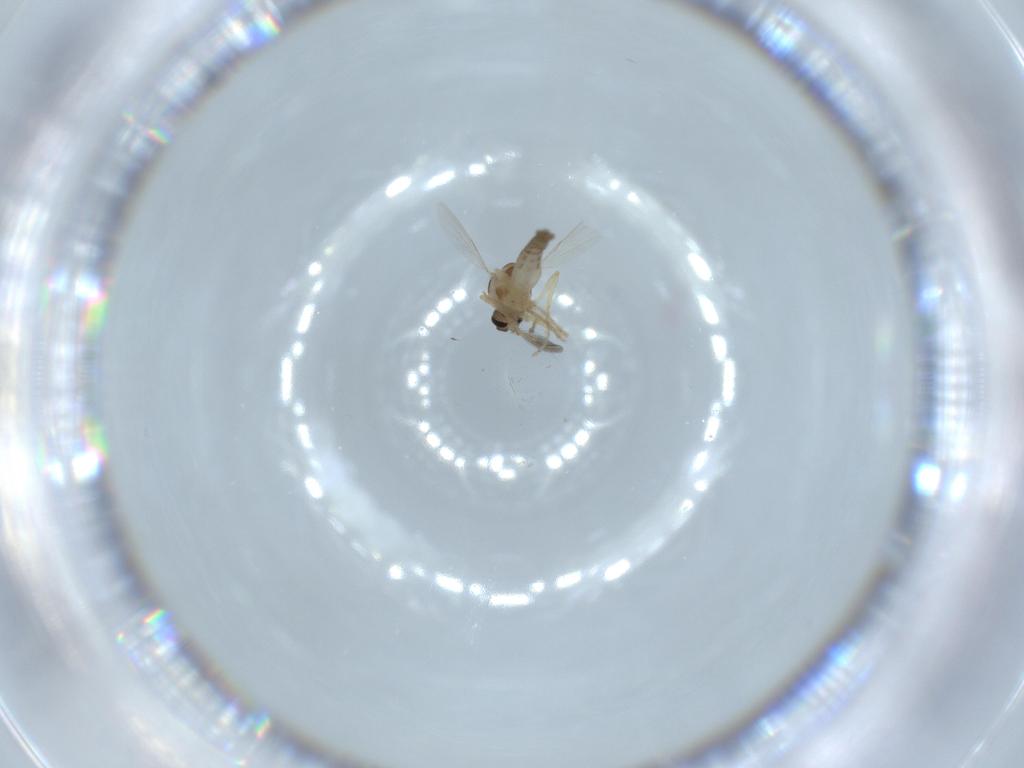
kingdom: Animalia
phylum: Arthropoda
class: Insecta
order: Diptera
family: Ceratopogonidae
